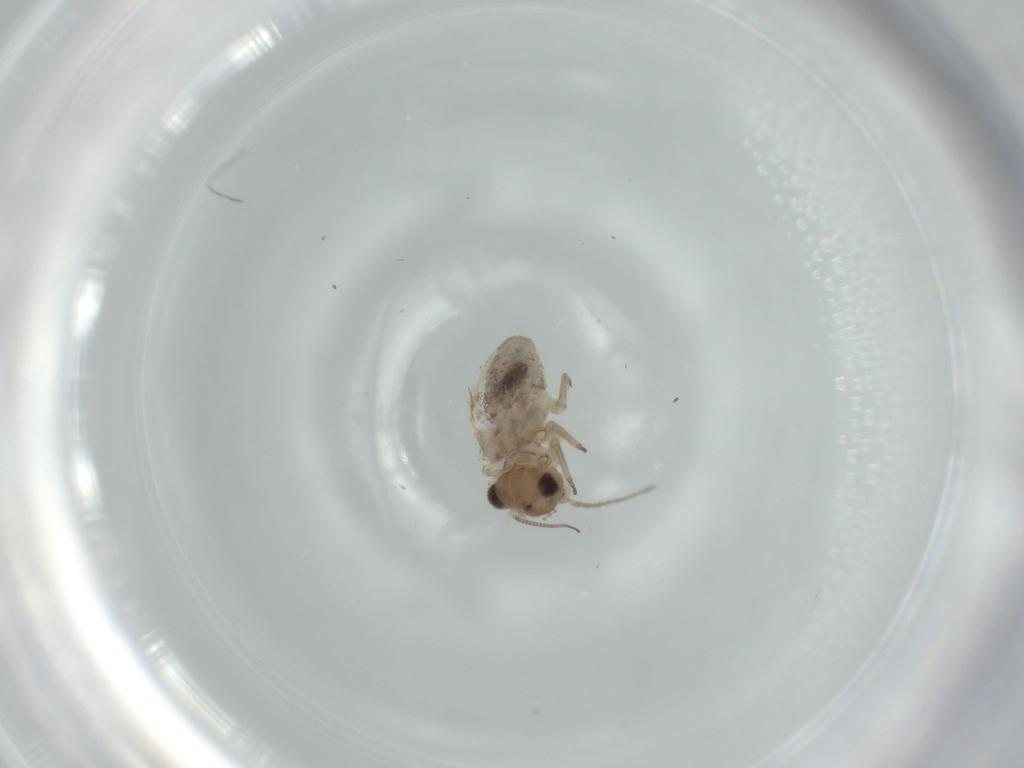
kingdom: Animalia
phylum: Arthropoda
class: Insecta
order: Psocodea
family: Psocidae
